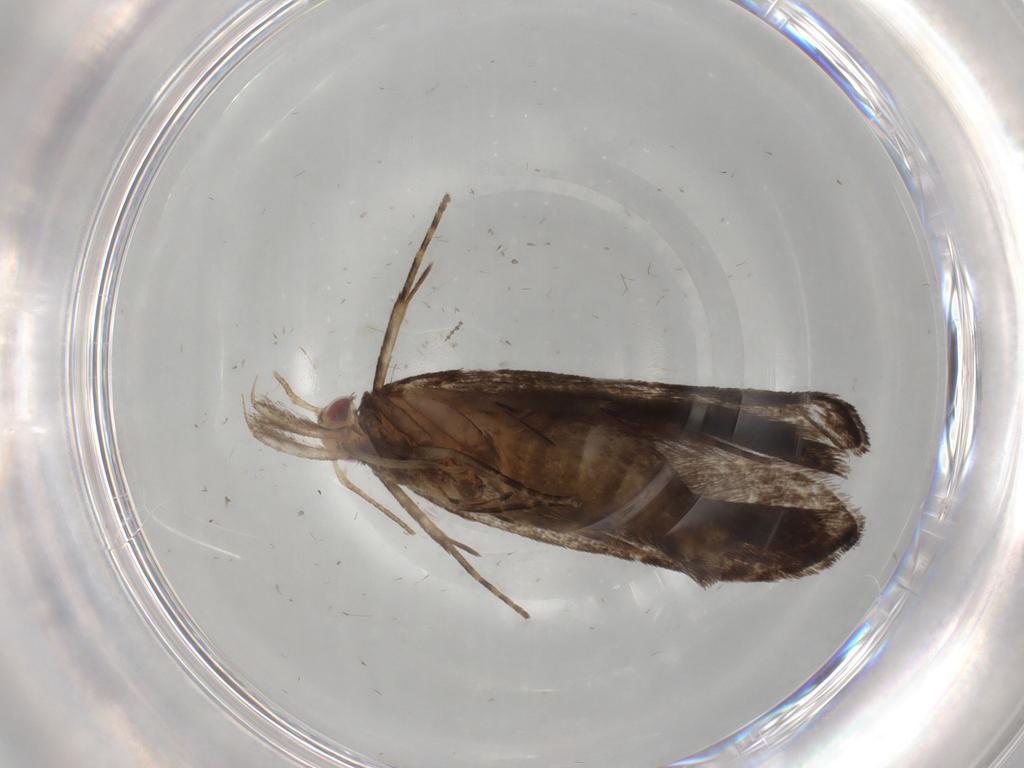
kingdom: Animalia
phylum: Arthropoda
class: Insecta
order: Lepidoptera
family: Gelechiidae
